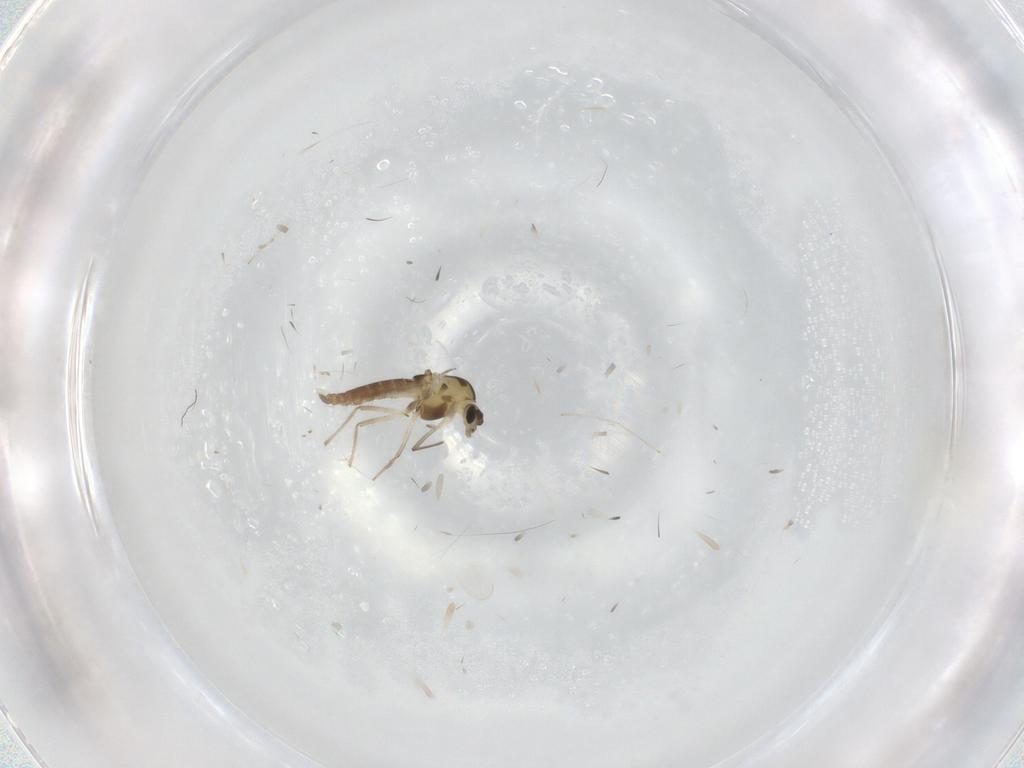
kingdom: Animalia
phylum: Arthropoda
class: Insecta
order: Diptera
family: Chironomidae
